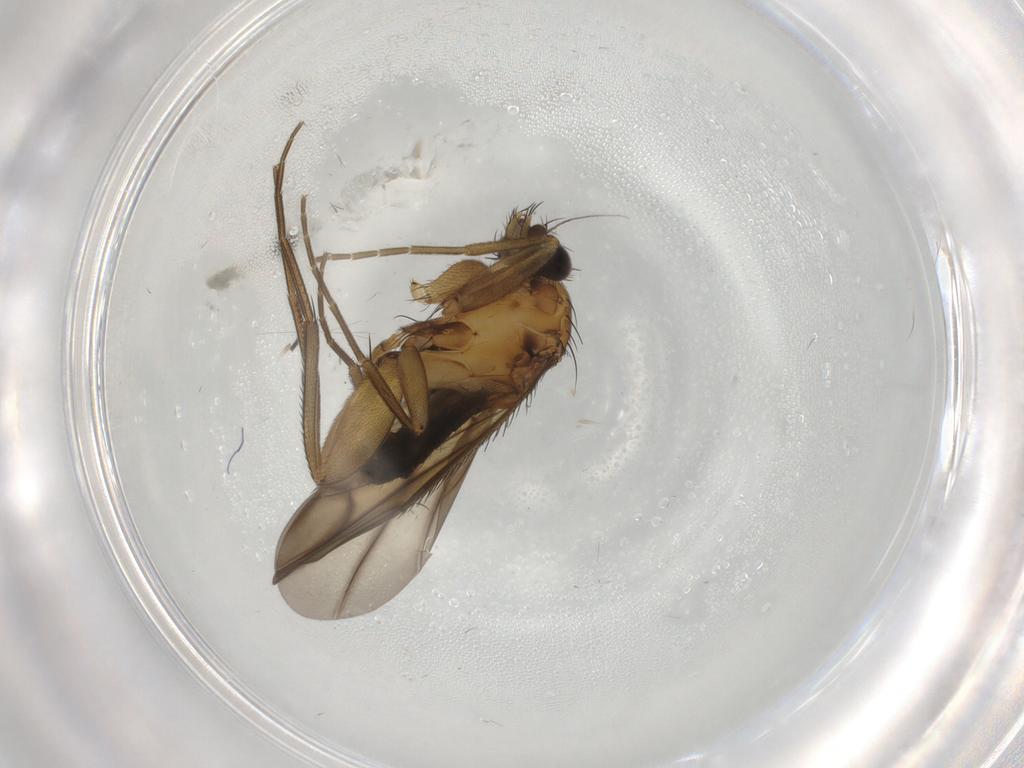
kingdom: Animalia
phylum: Arthropoda
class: Insecta
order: Diptera
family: Phoridae
